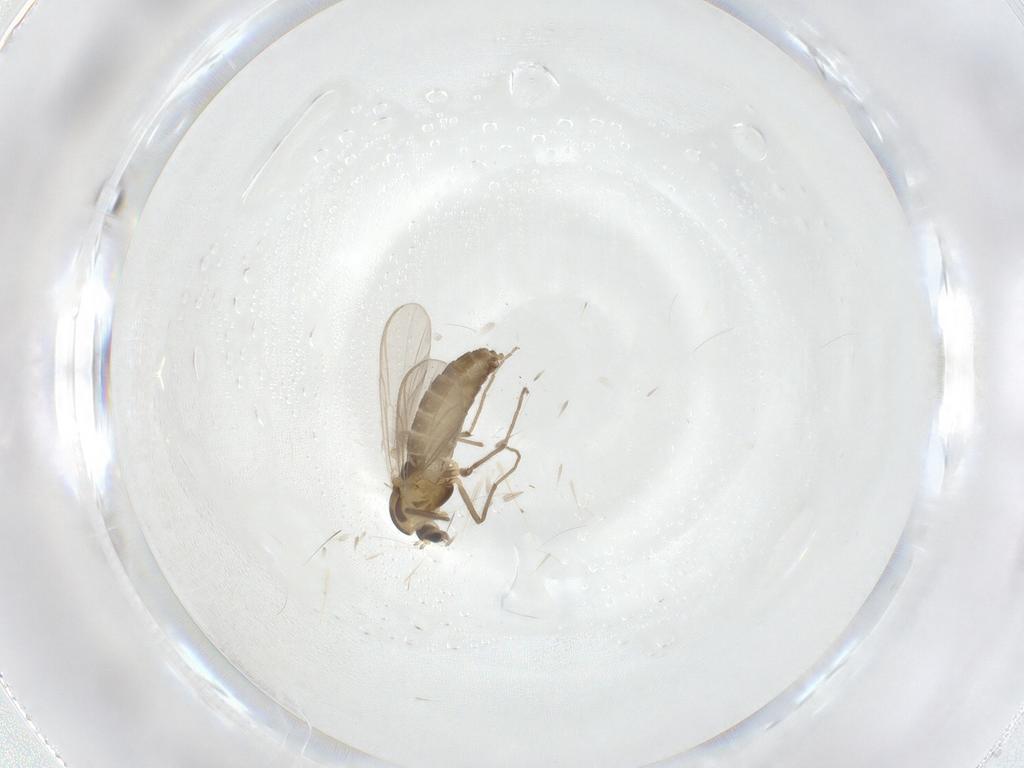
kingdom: Animalia
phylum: Arthropoda
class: Insecta
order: Diptera
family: Chironomidae
